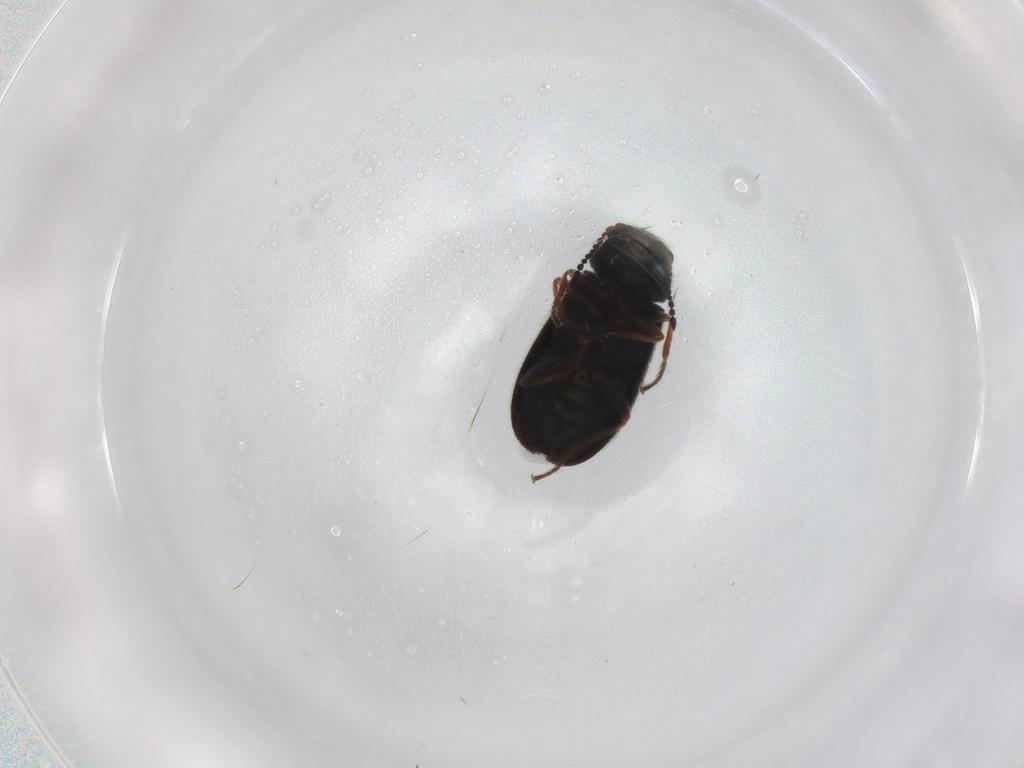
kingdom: Animalia
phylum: Arthropoda
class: Insecta
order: Coleoptera
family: Melyridae
